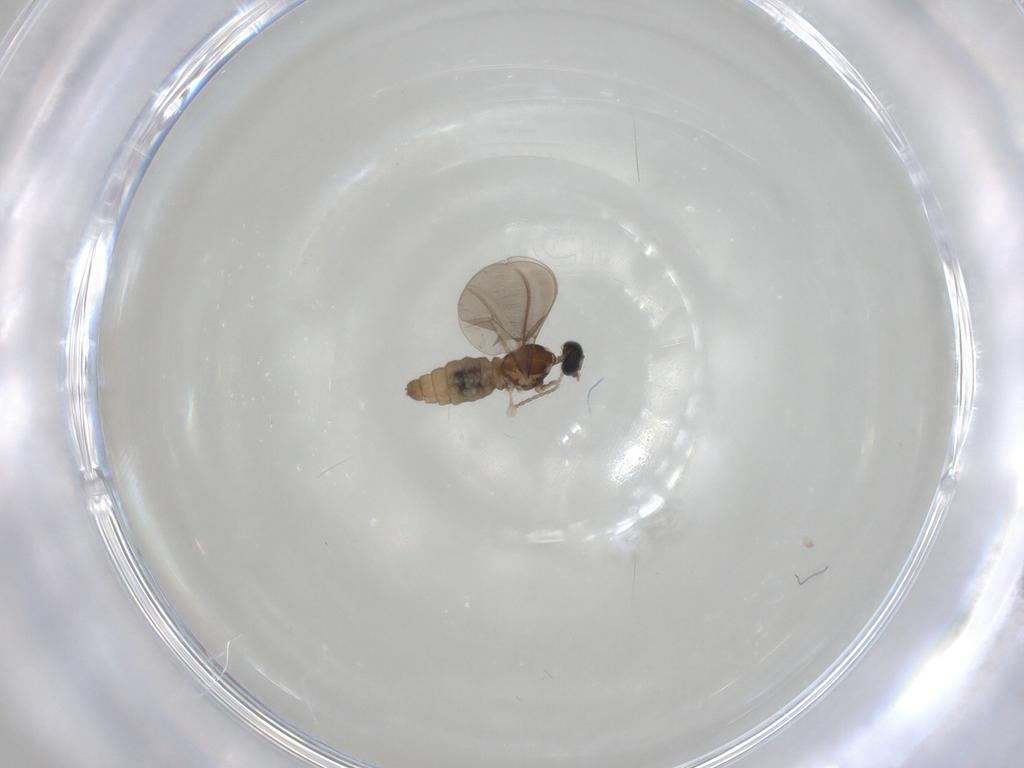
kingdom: Animalia
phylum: Arthropoda
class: Insecta
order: Diptera
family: Cecidomyiidae
